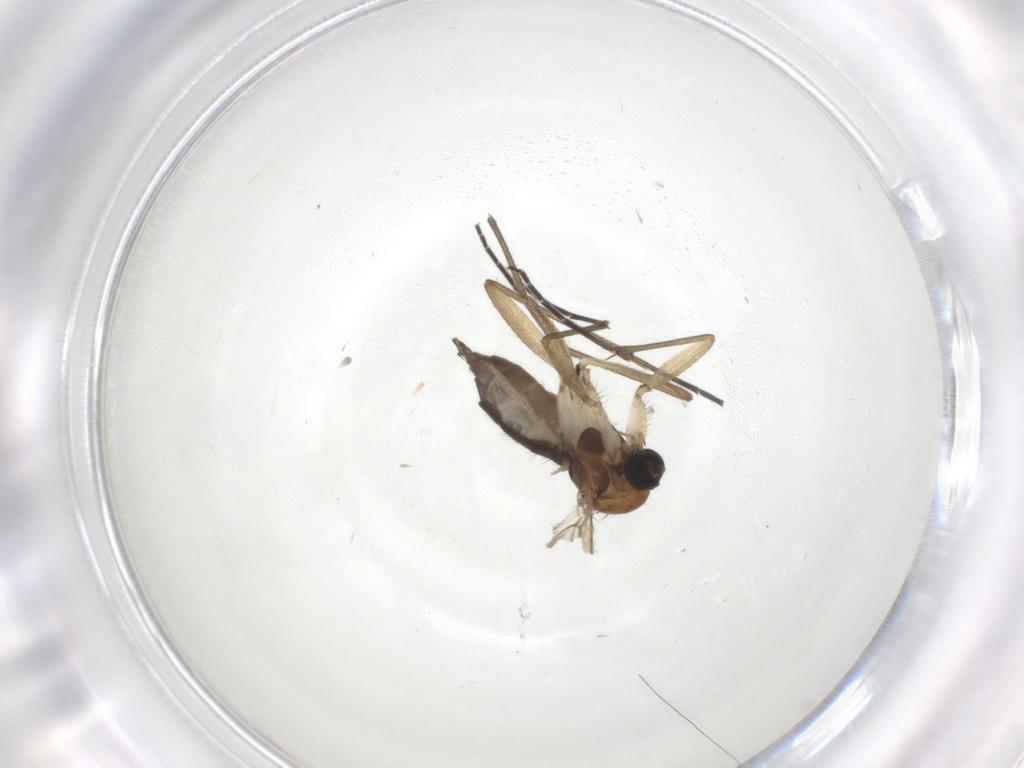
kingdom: Animalia
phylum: Arthropoda
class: Insecta
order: Diptera
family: Sciaridae
